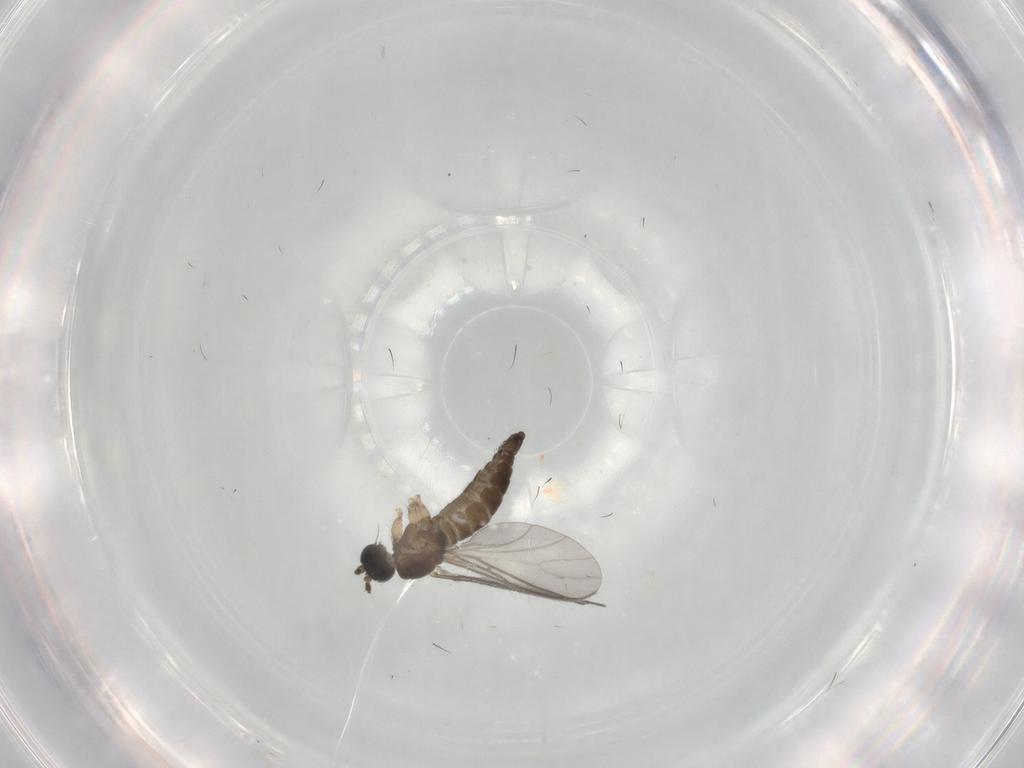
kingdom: Animalia
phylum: Arthropoda
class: Insecta
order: Diptera
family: Sciaridae
